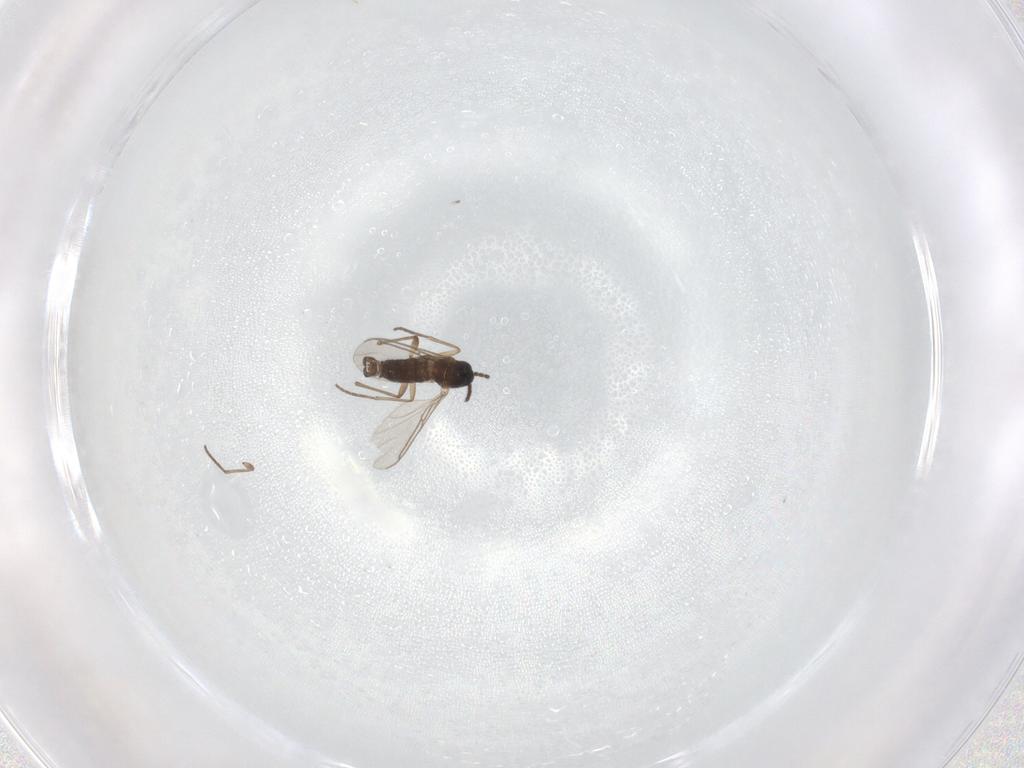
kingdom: Animalia
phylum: Arthropoda
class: Insecta
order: Diptera
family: Sciaridae
